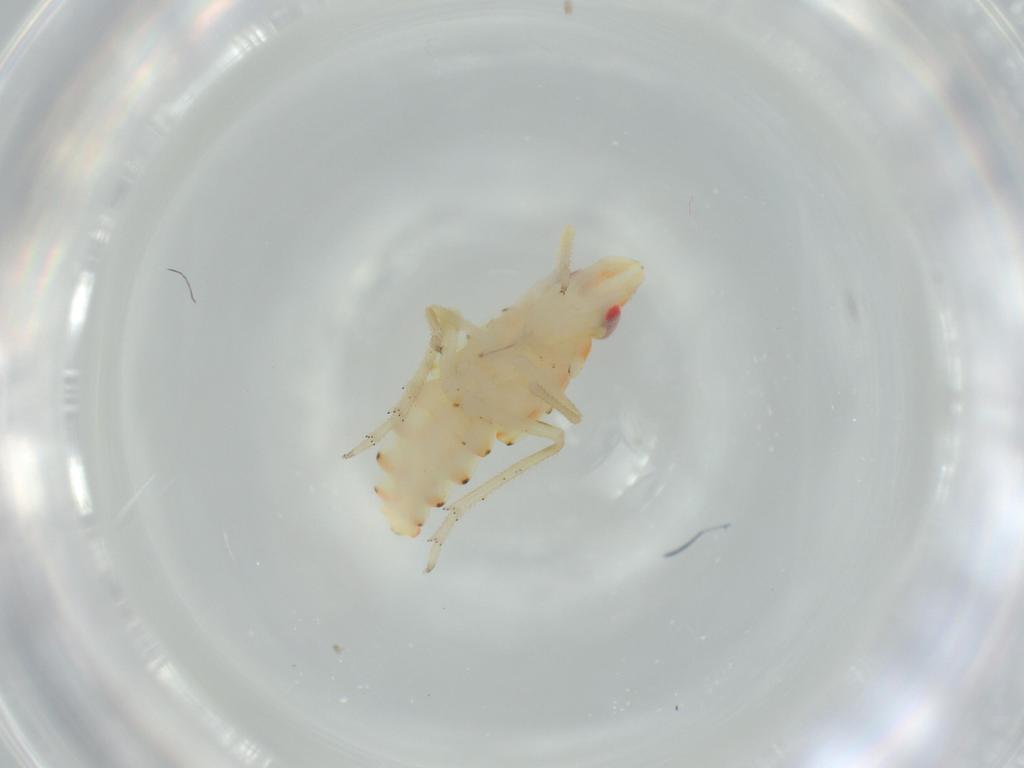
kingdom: Animalia
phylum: Arthropoda
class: Insecta
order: Hemiptera
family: Tropiduchidae
